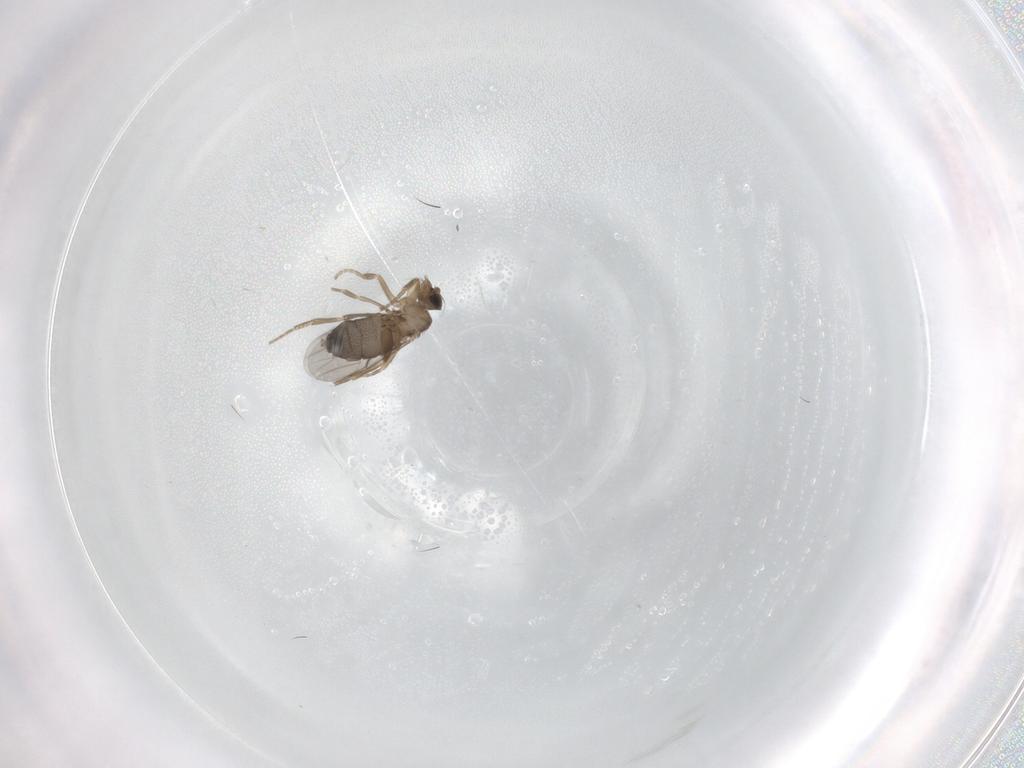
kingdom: Animalia
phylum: Arthropoda
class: Insecta
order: Diptera
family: Phoridae
